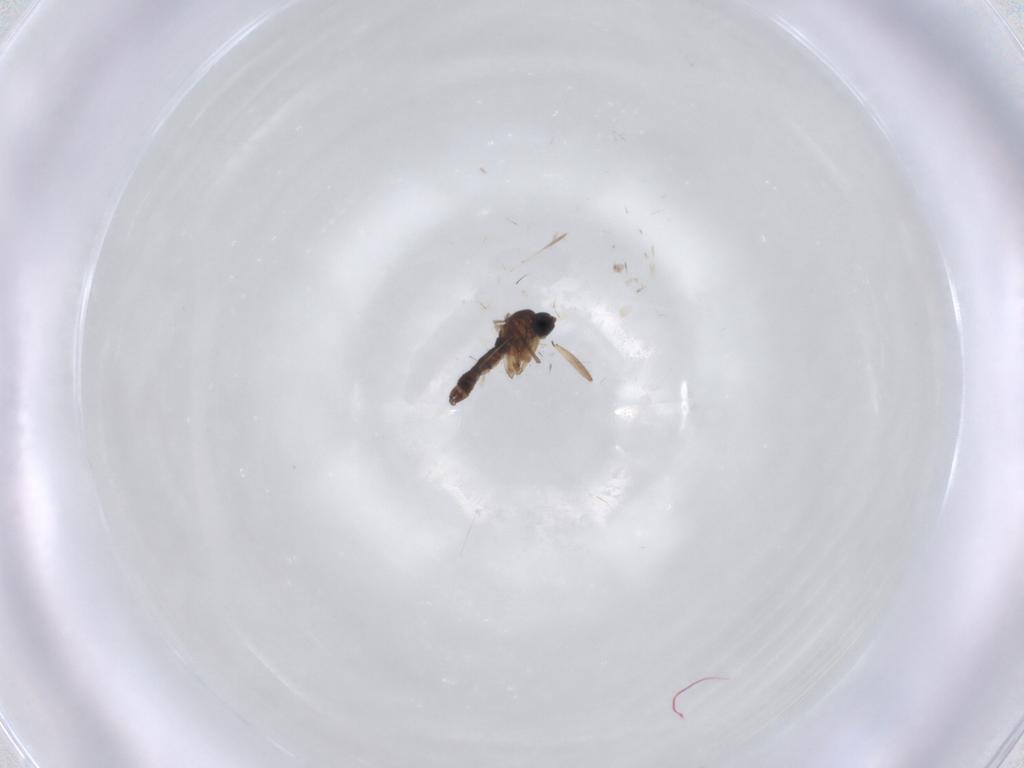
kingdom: Animalia
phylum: Arthropoda
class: Insecta
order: Diptera
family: Sciaridae
